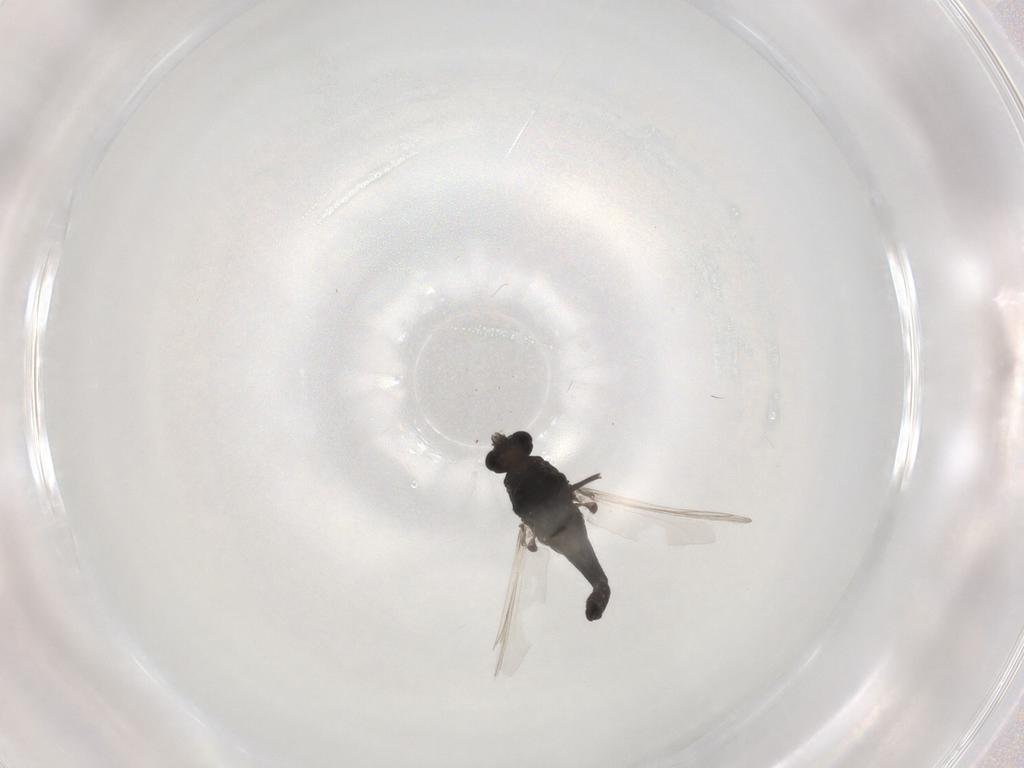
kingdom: Animalia
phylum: Arthropoda
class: Insecta
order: Diptera
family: Chironomidae
